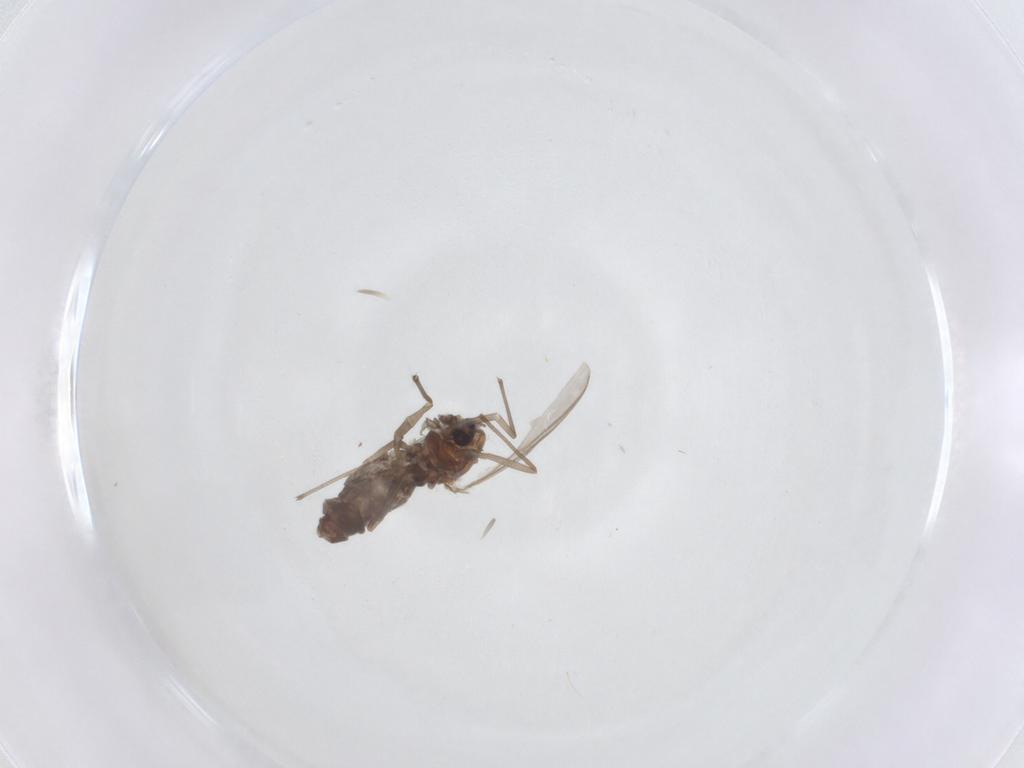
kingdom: Animalia
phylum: Arthropoda
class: Insecta
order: Diptera
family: Chironomidae
